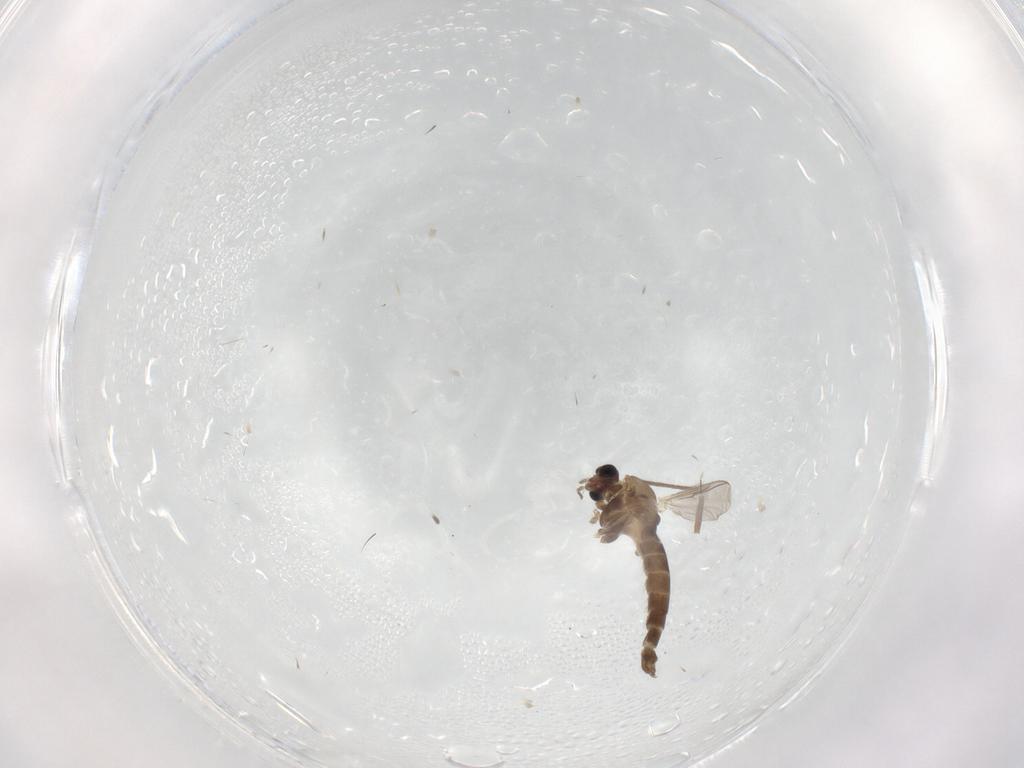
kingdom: Animalia
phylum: Arthropoda
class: Insecta
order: Diptera
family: Chironomidae
